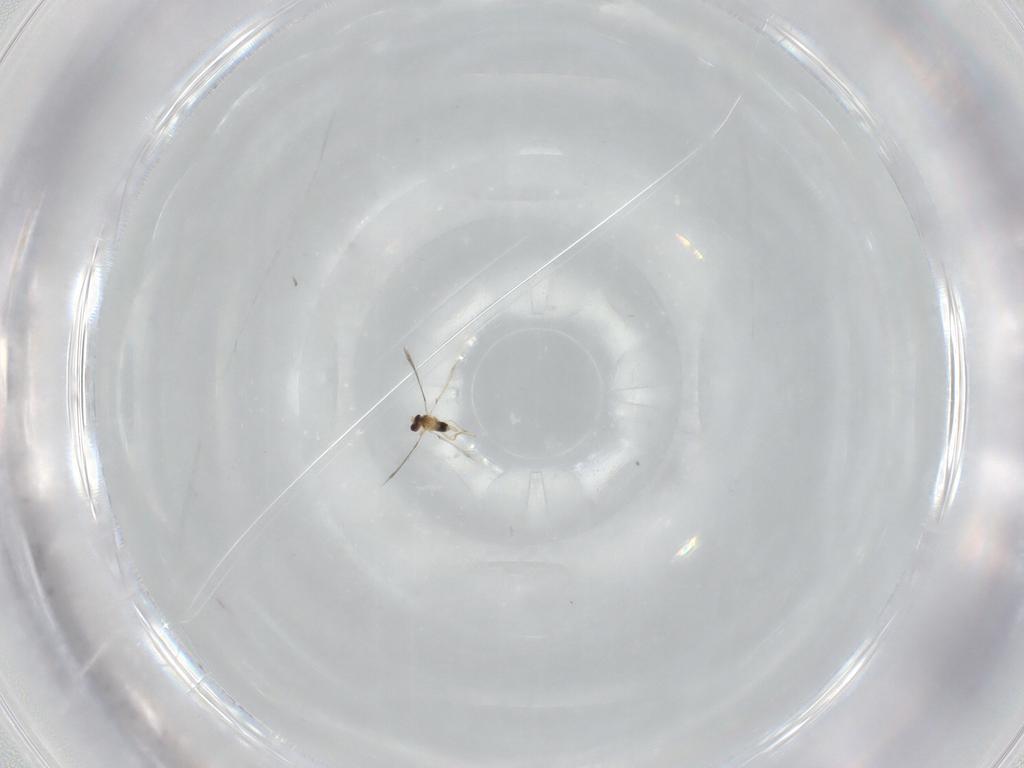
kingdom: Animalia
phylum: Arthropoda
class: Insecta
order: Hymenoptera
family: Mymaridae
